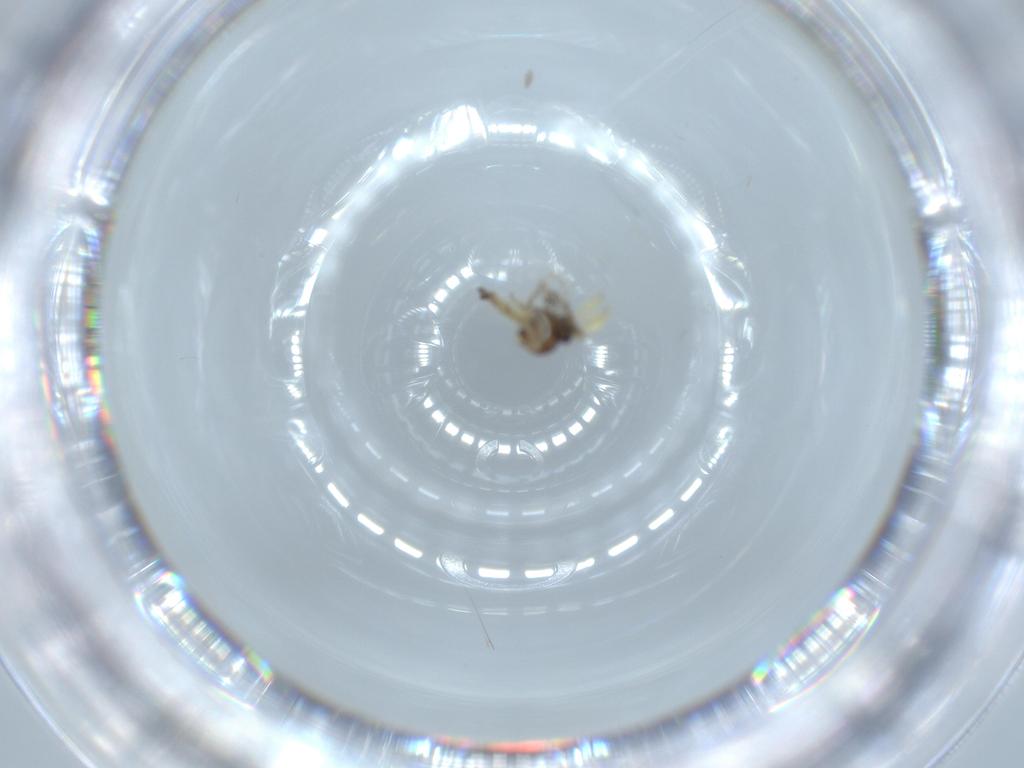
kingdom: Animalia
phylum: Arthropoda
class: Insecta
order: Diptera
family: Ceratopogonidae
